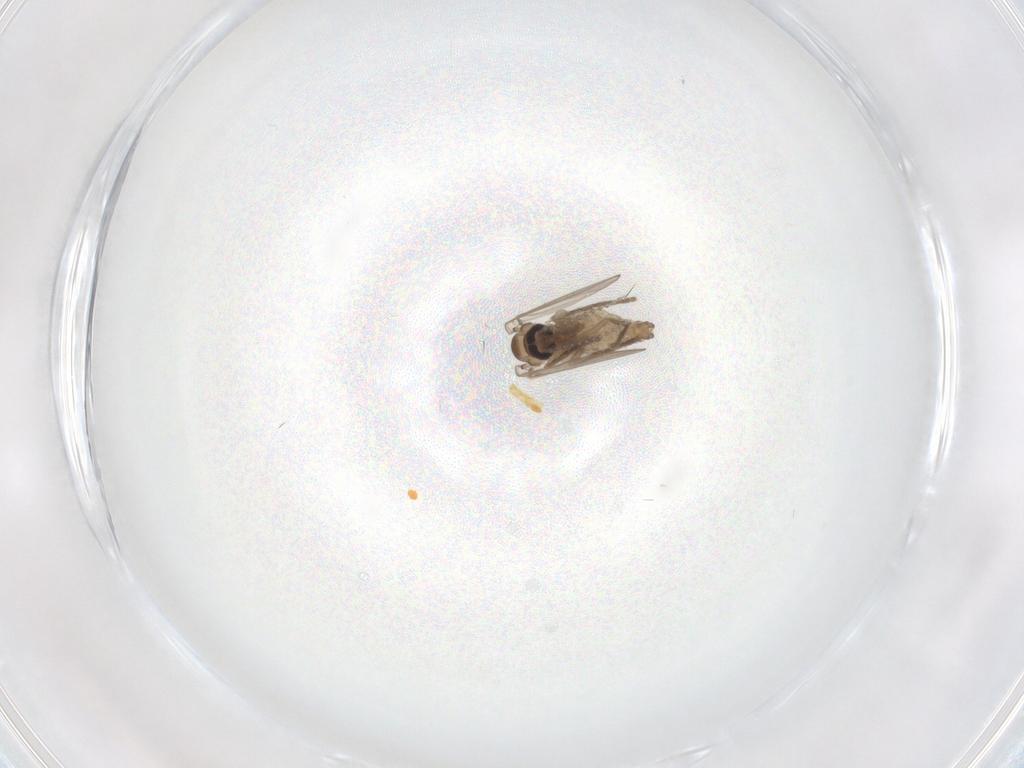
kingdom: Animalia
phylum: Arthropoda
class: Insecta
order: Diptera
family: Psychodidae
